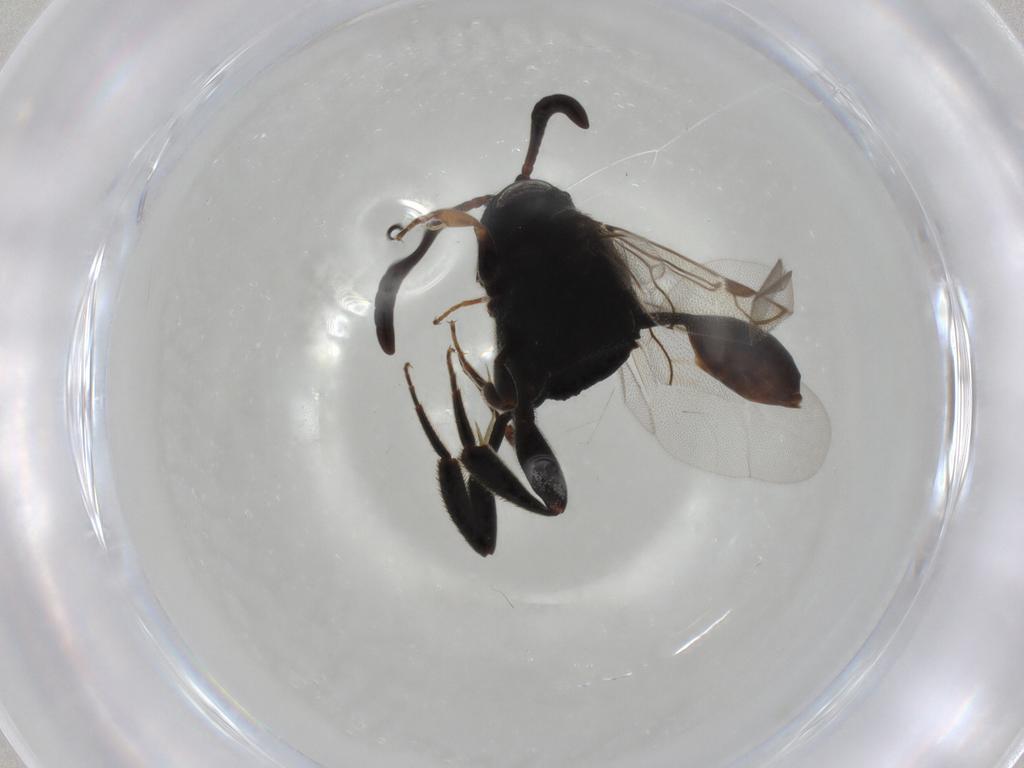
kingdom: Animalia
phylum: Arthropoda
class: Insecta
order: Hymenoptera
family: Evaniidae
